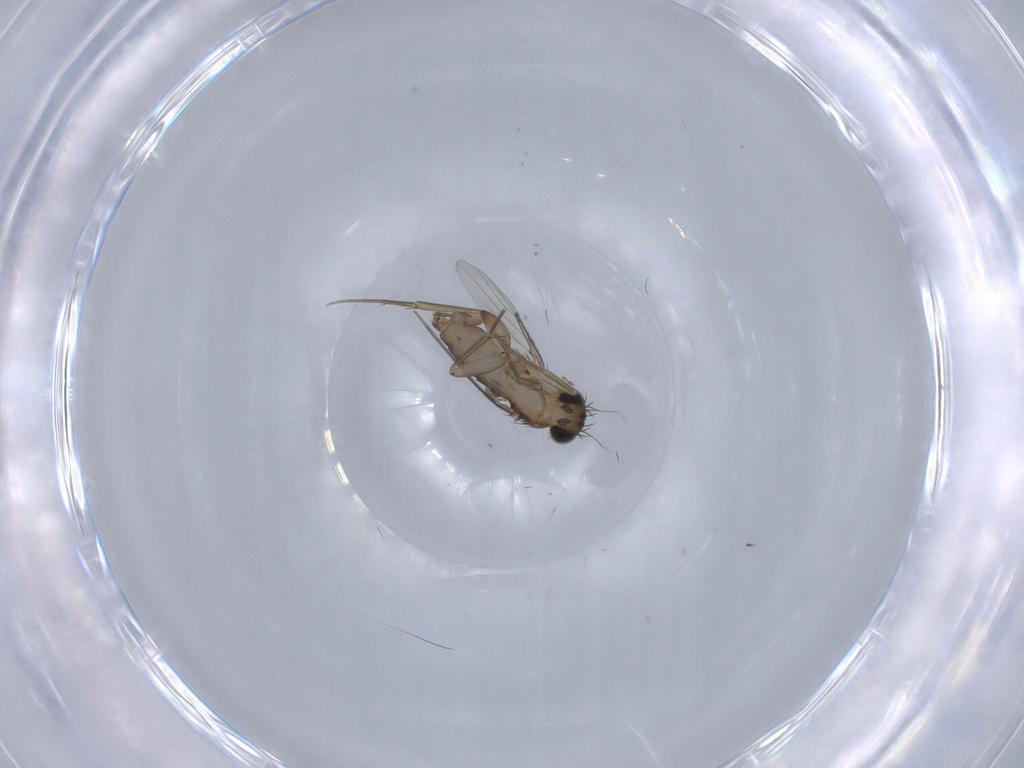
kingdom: Animalia
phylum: Arthropoda
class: Insecta
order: Diptera
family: Phoridae
